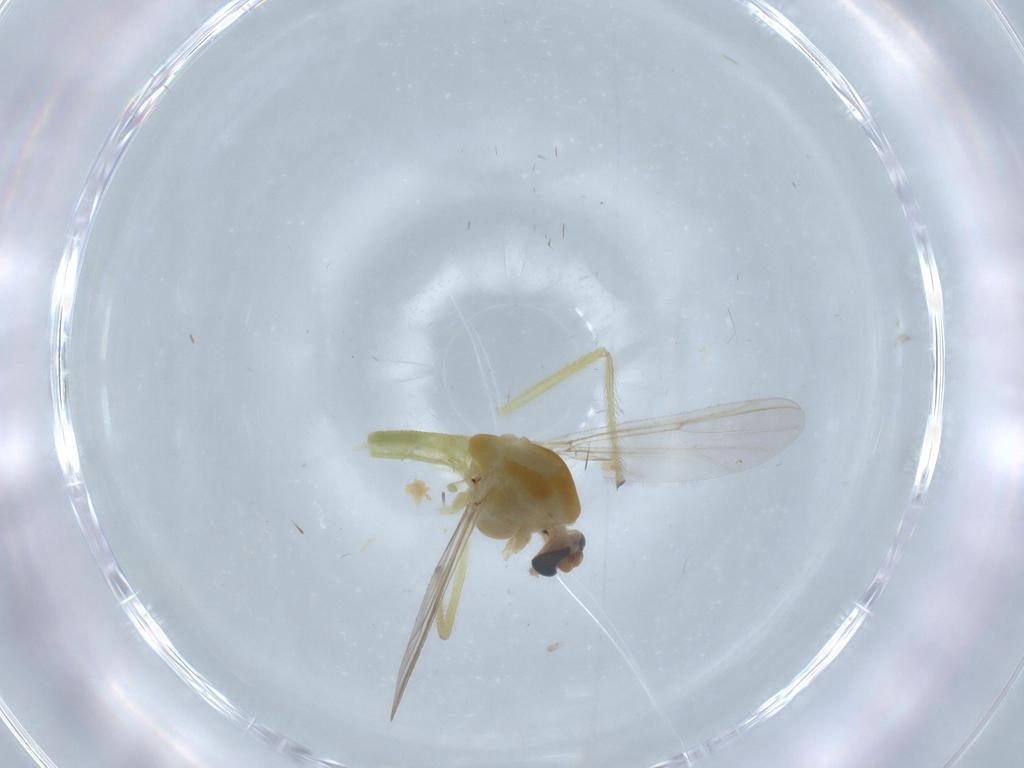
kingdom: Animalia
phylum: Arthropoda
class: Insecta
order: Diptera
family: Chironomidae
